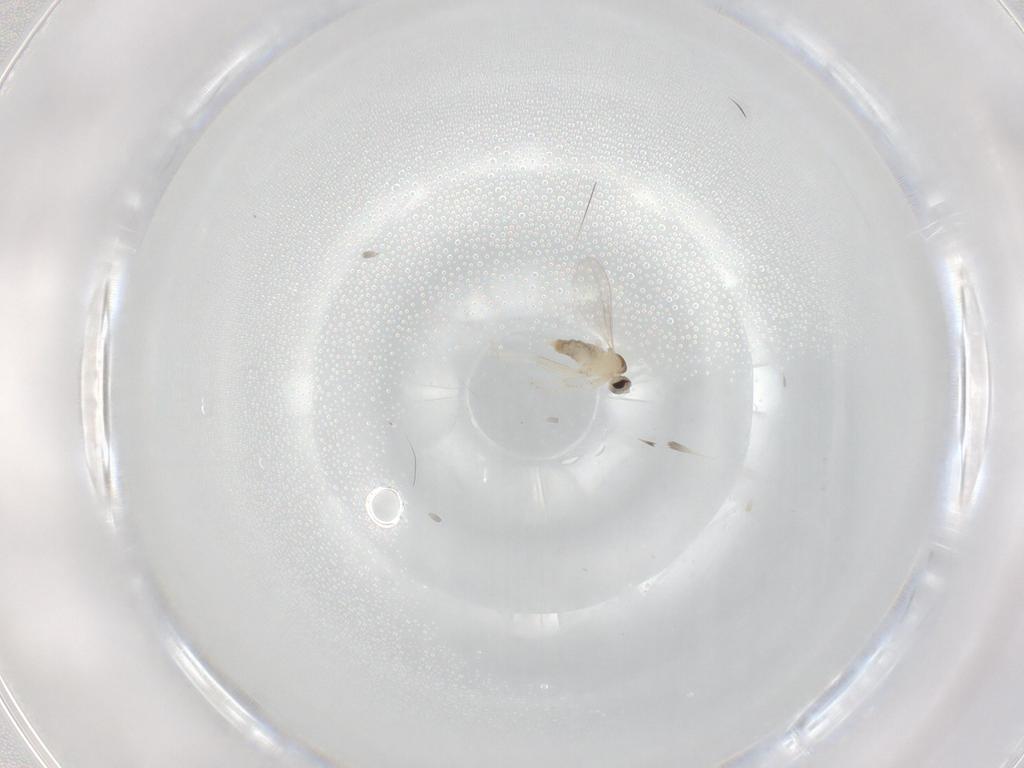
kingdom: Animalia
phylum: Arthropoda
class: Insecta
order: Diptera
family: Cecidomyiidae
